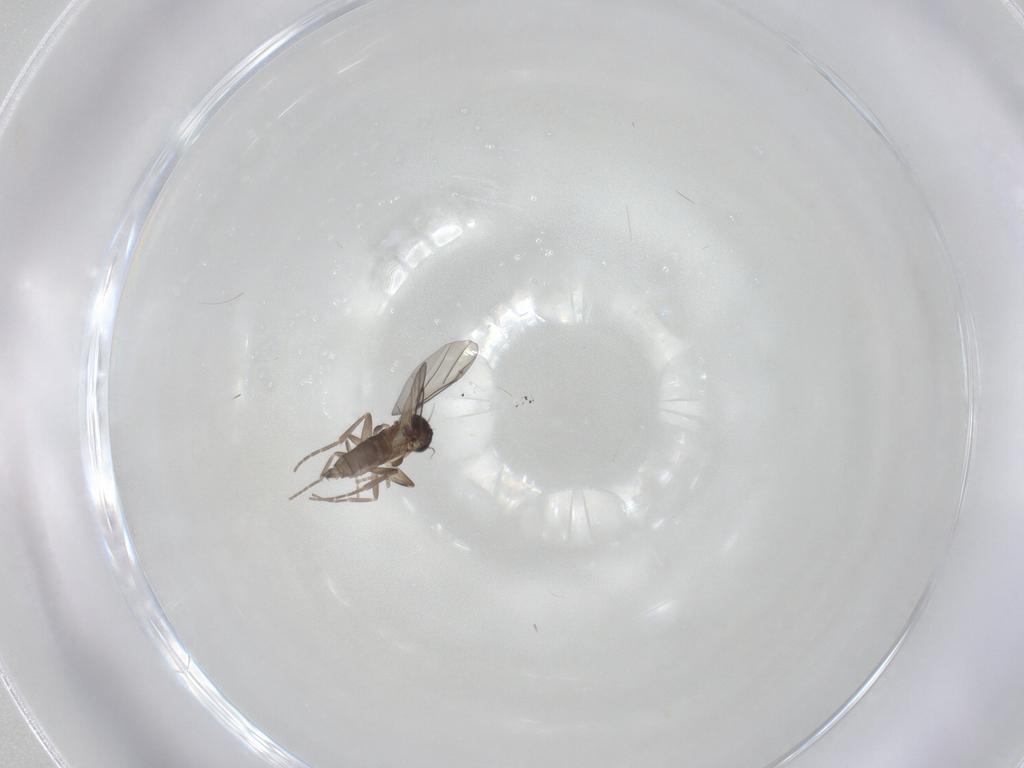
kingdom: Animalia
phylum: Arthropoda
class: Insecta
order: Diptera
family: Cecidomyiidae
